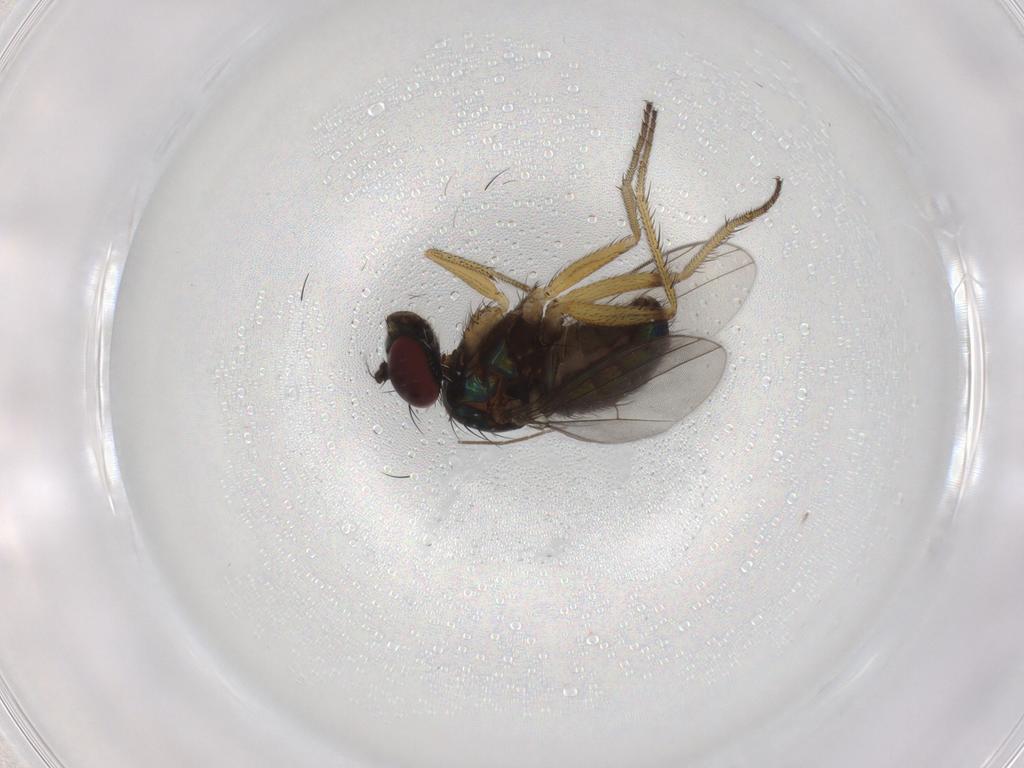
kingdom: Animalia
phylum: Arthropoda
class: Insecta
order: Diptera
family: Dolichopodidae
